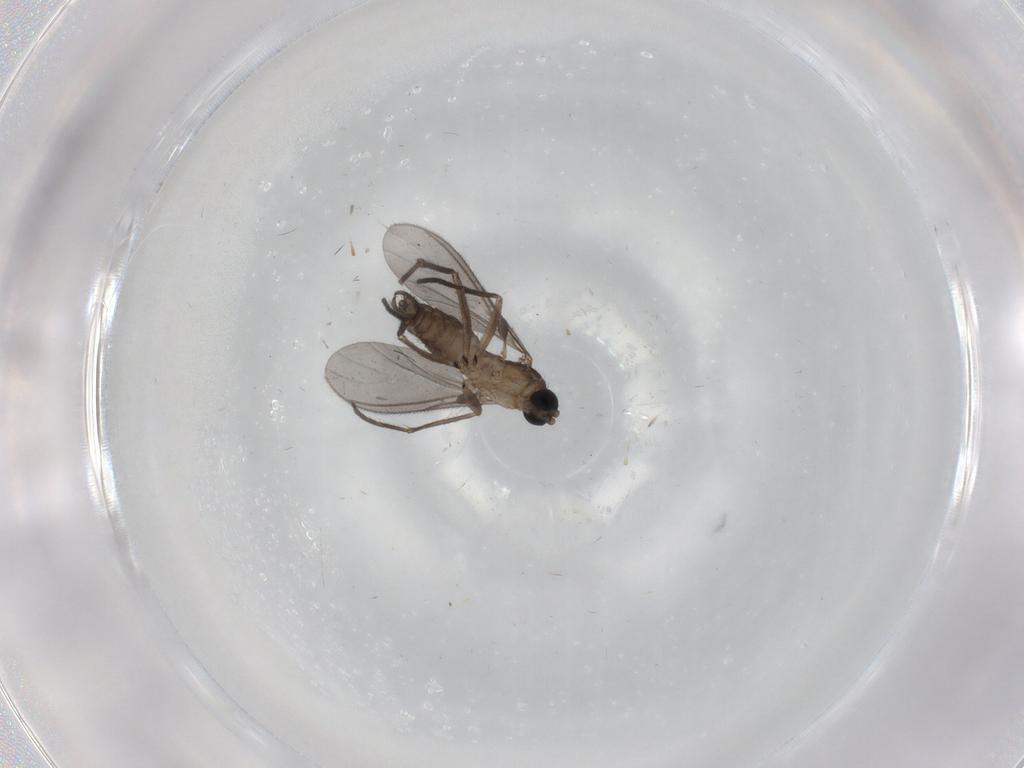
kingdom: Animalia
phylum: Arthropoda
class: Insecta
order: Diptera
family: Sciaridae
